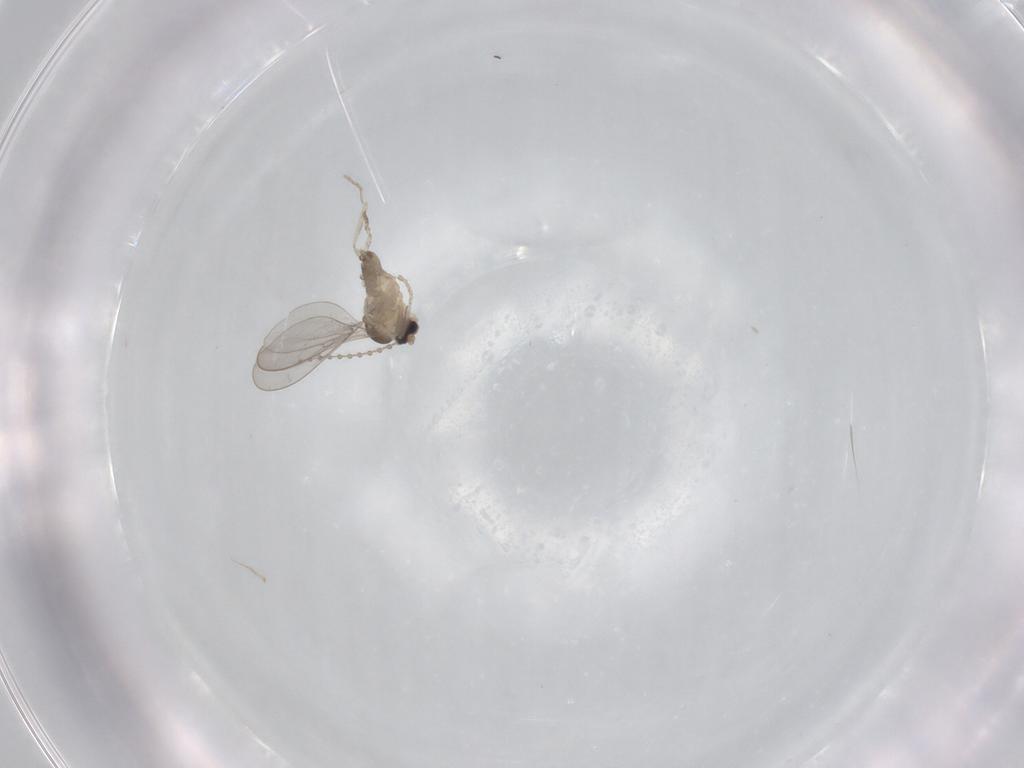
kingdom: Animalia
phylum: Arthropoda
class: Insecta
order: Diptera
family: Cecidomyiidae
